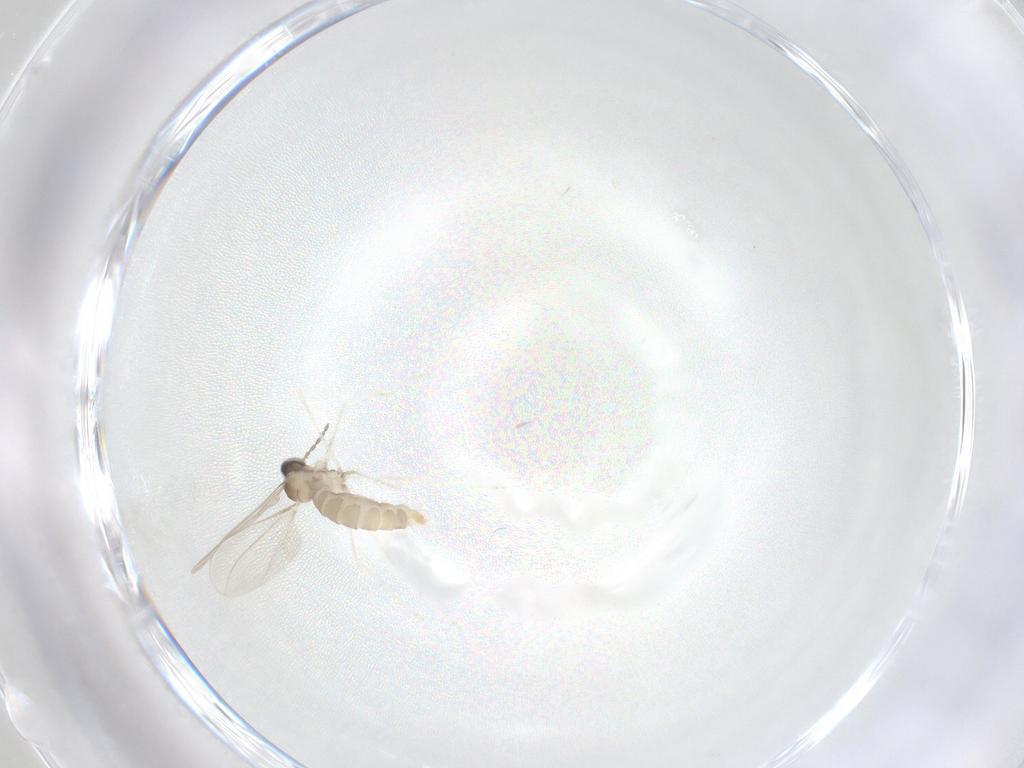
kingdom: Animalia
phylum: Arthropoda
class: Insecta
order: Diptera
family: Cecidomyiidae
